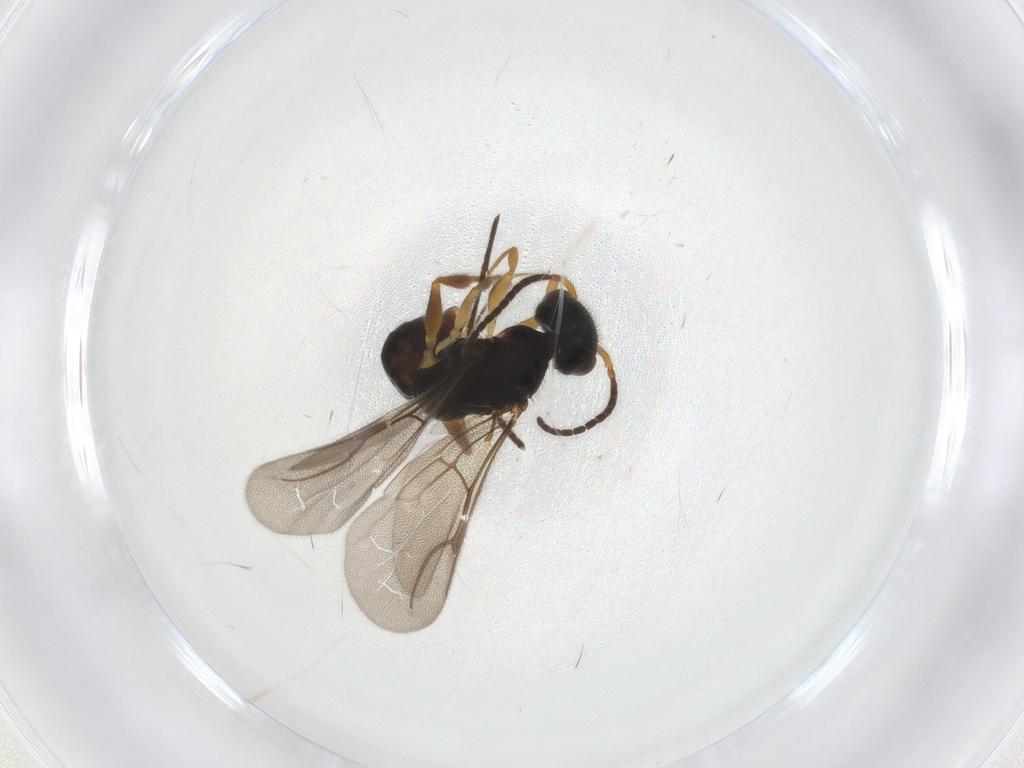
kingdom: Animalia
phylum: Arthropoda
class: Insecta
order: Hymenoptera
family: Bethylidae
